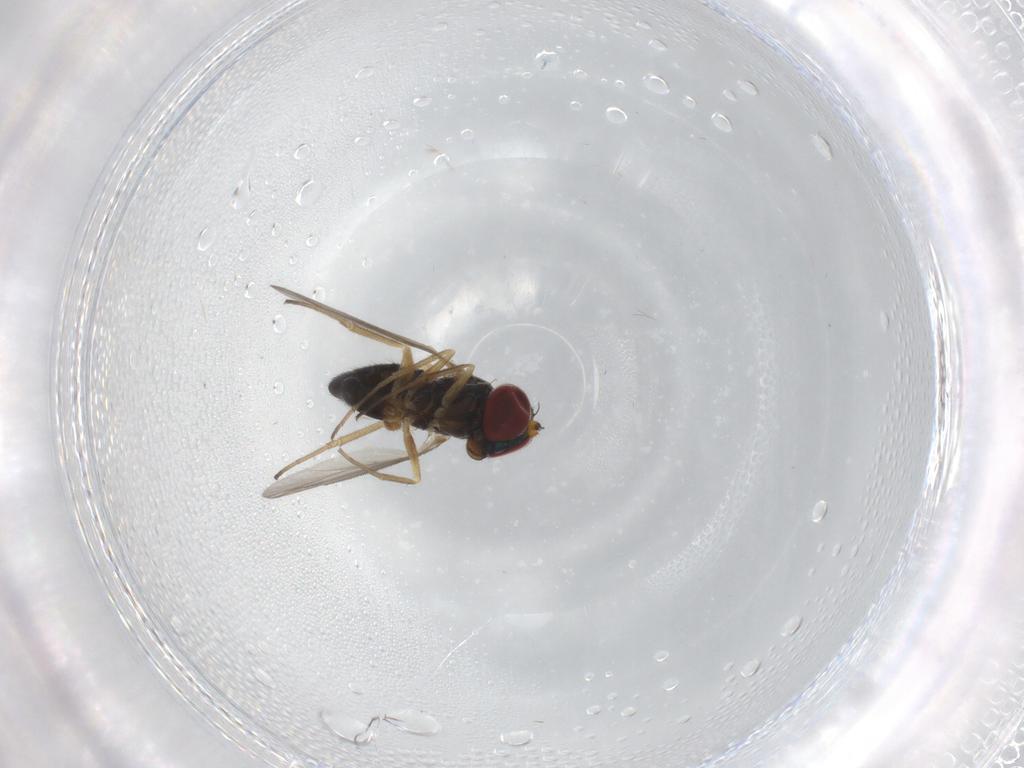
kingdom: Animalia
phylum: Arthropoda
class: Insecta
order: Diptera
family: Dolichopodidae
